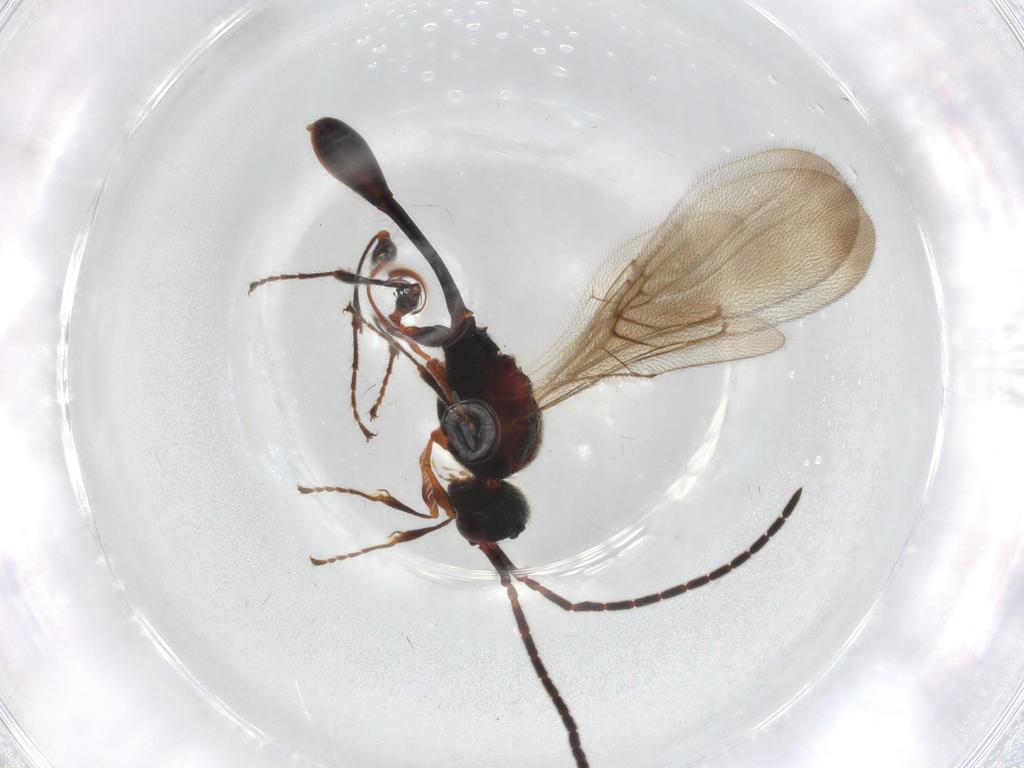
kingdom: Animalia
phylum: Arthropoda
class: Insecta
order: Hymenoptera
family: Diapriidae
